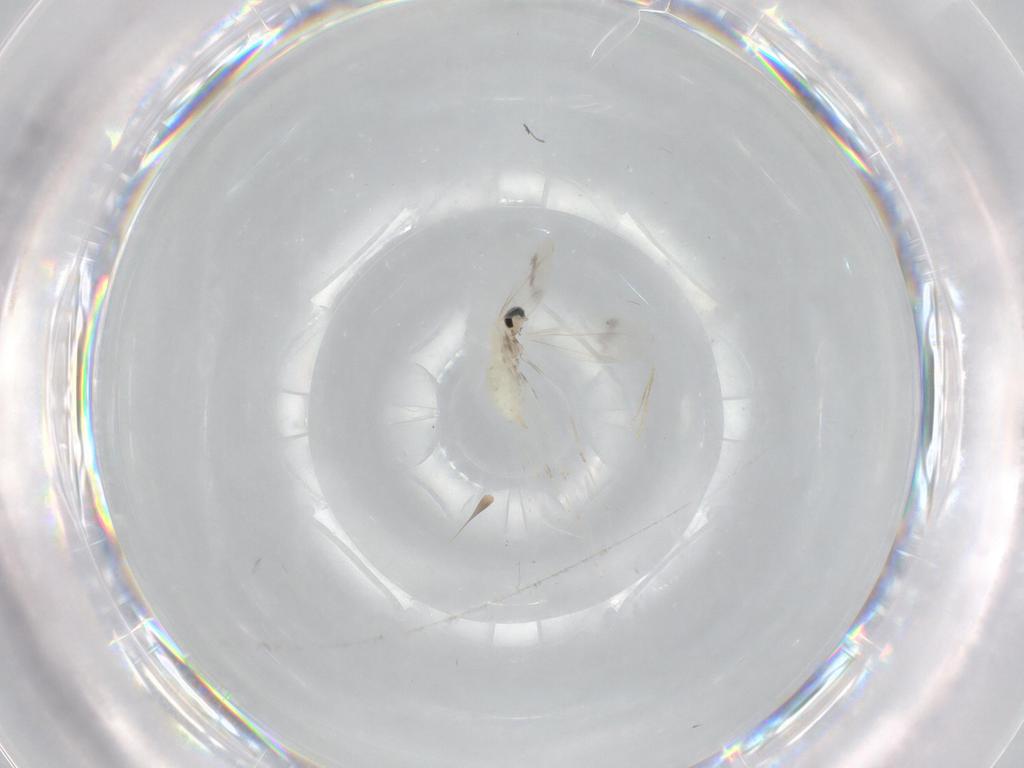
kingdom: Animalia
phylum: Arthropoda
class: Insecta
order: Diptera
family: Cecidomyiidae
